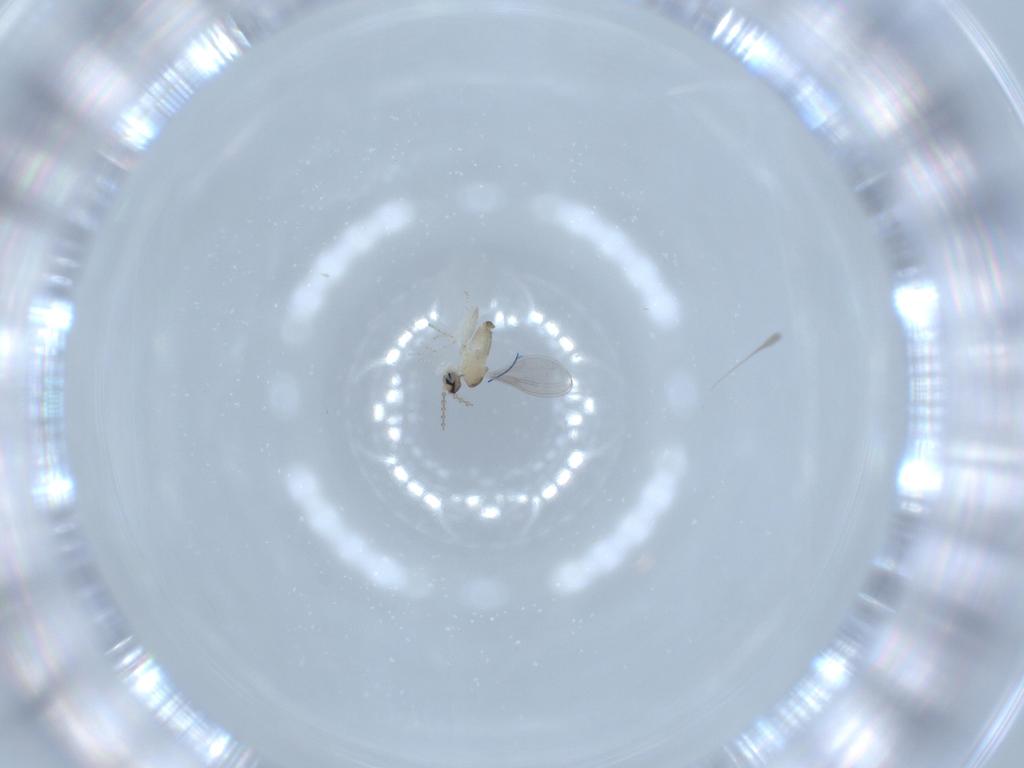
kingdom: Animalia
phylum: Arthropoda
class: Insecta
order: Diptera
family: Cecidomyiidae
